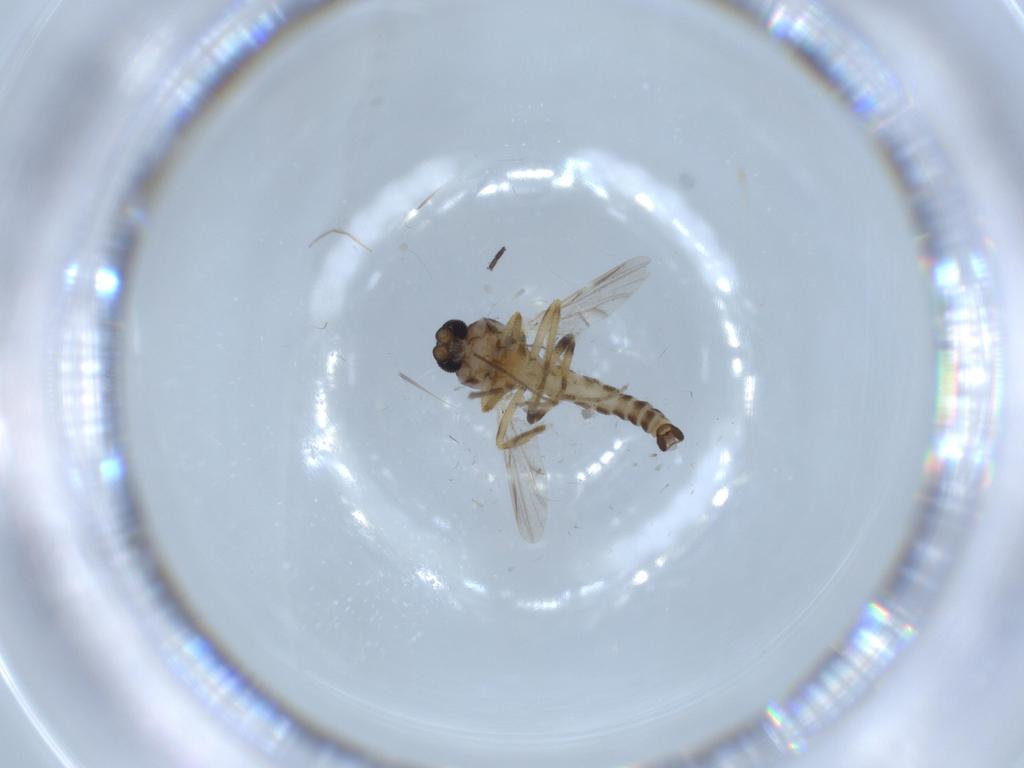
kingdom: Animalia
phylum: Arthropoda
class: Insecta
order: Diptera
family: Ceratopogonidae
